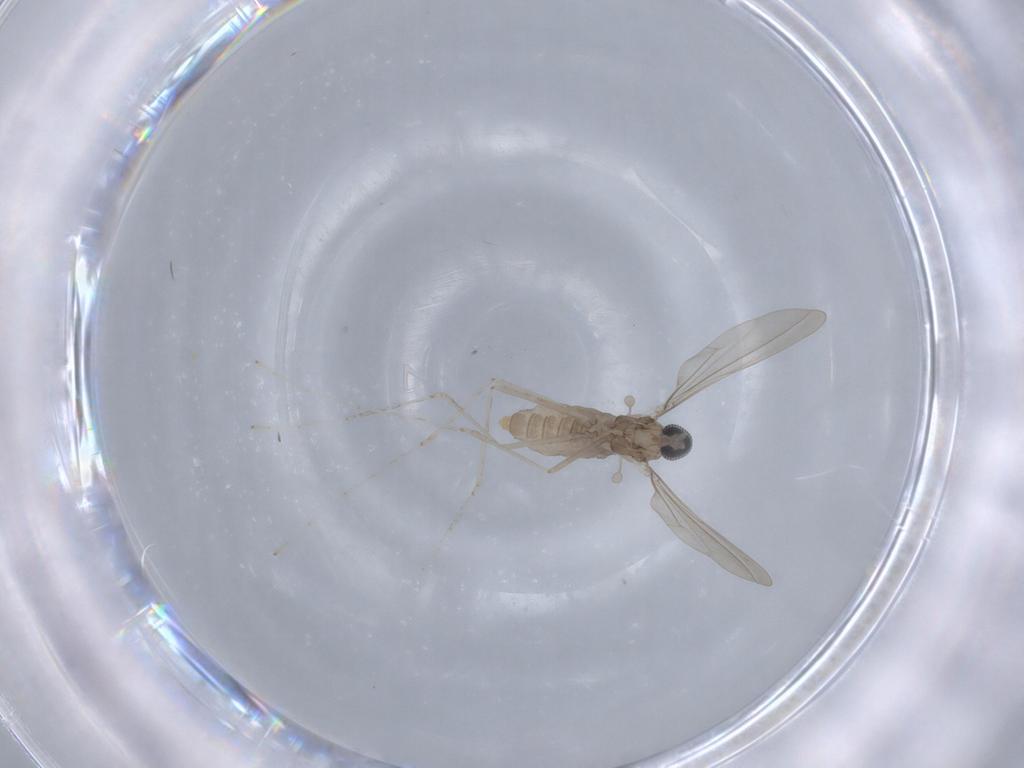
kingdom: Animalia
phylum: Arthropoda
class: Insecta
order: Diptera
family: Cecidomyiidae
